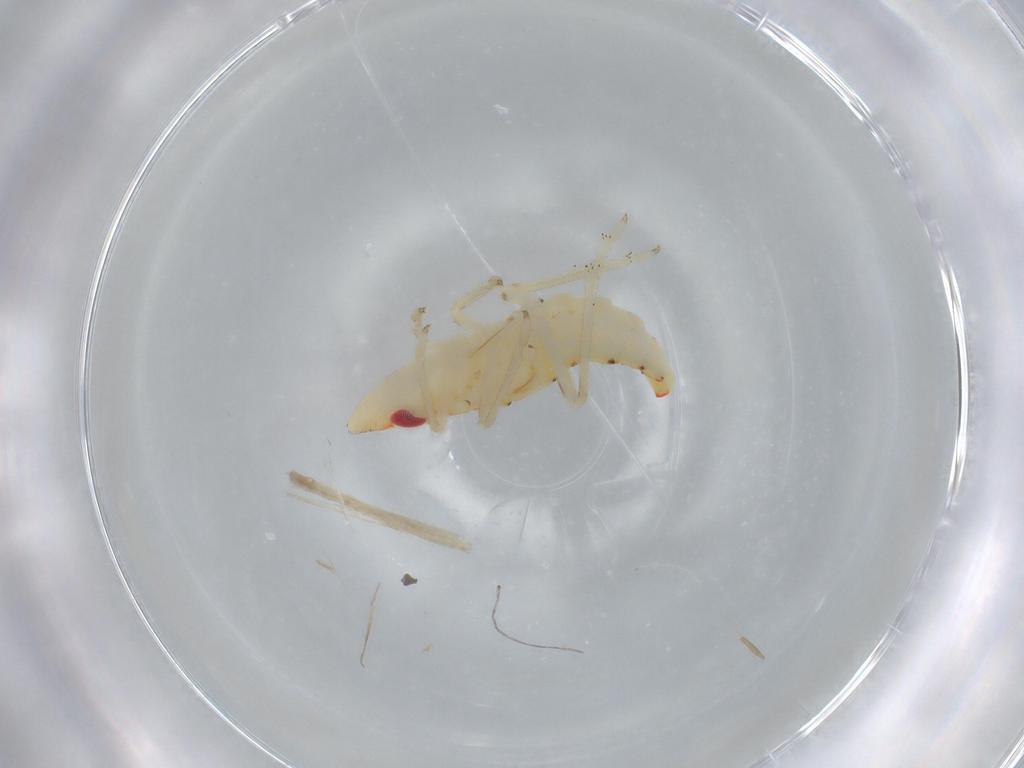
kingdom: Animalia
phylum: Arthropoda
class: Insecta
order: Hemiptera
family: Tropiduchidae
